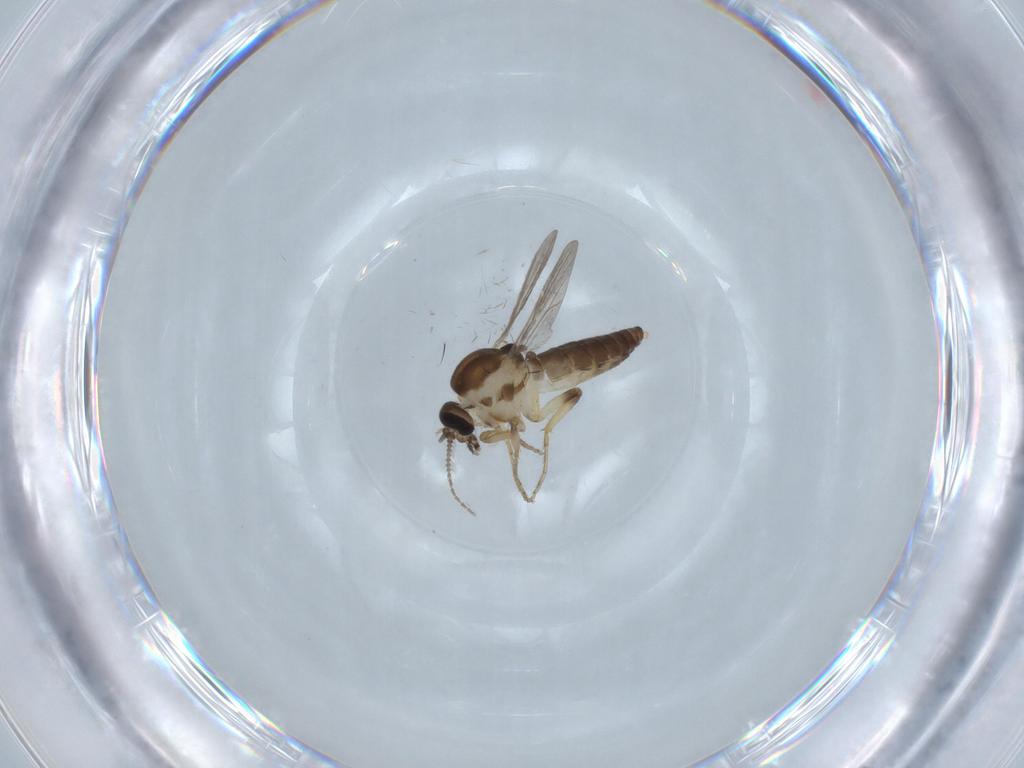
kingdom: Animalia
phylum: Arthropoda
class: Insecta
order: Diptera
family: Ceratopogonidae
